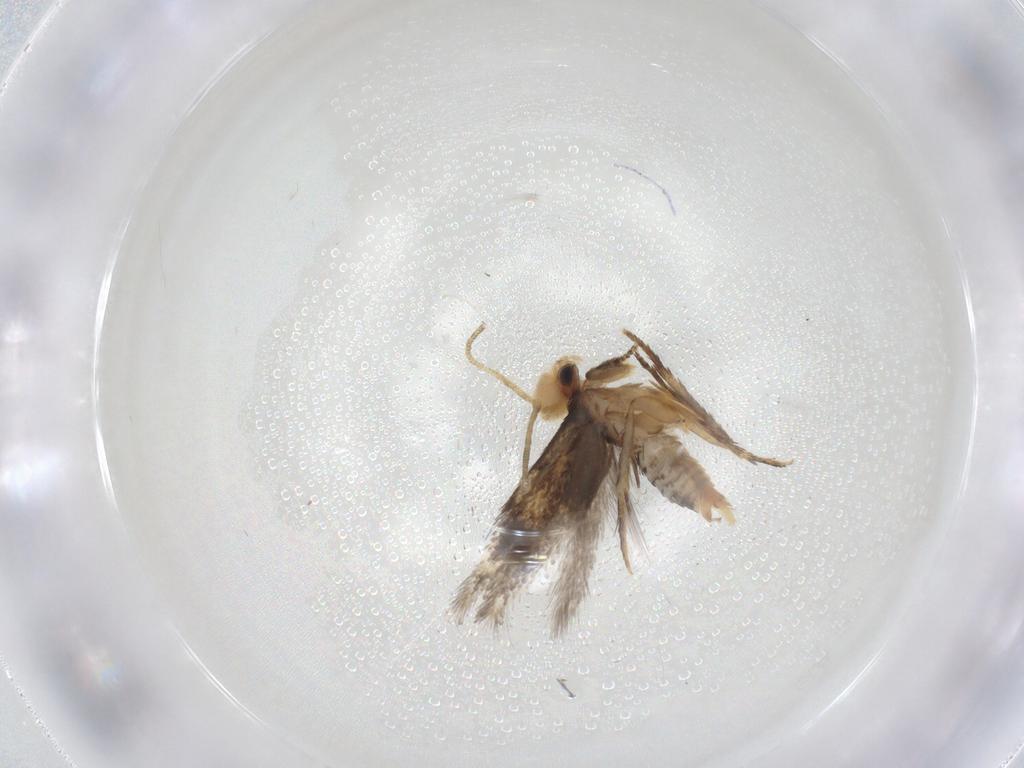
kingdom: Animalia
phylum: Arthropoda
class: Insecta
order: Lepidoptera
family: Nepticulidae
